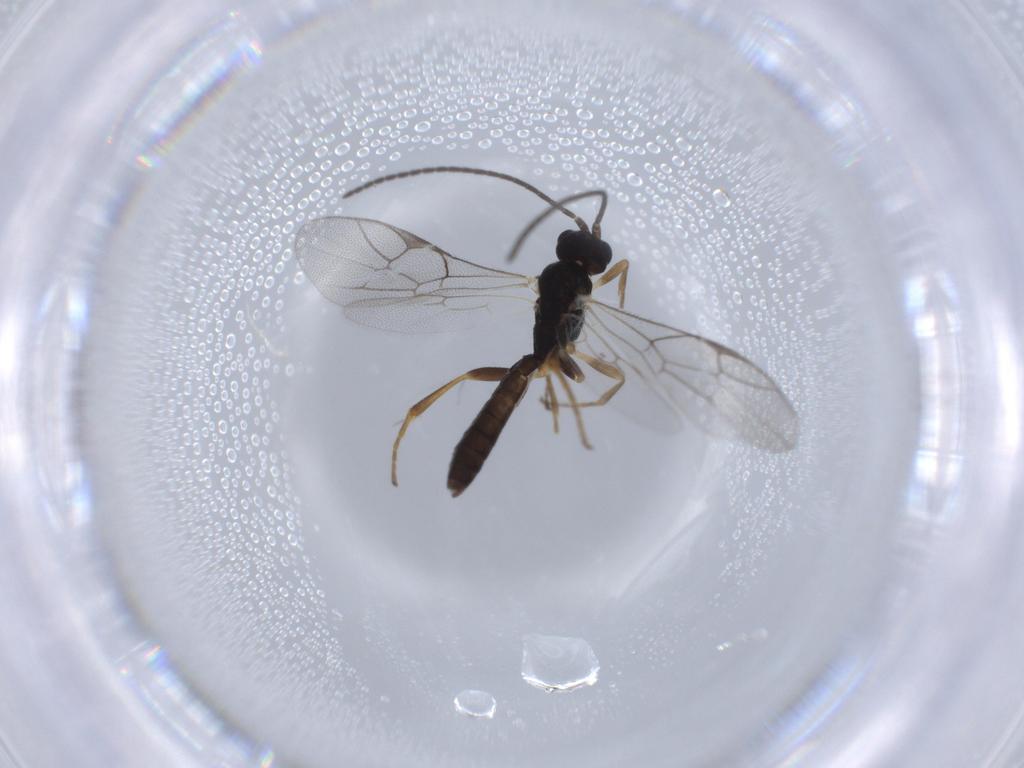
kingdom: Animalia
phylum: Arthropoda
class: Insecta
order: Hymenoptera
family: Ichneumonidae
